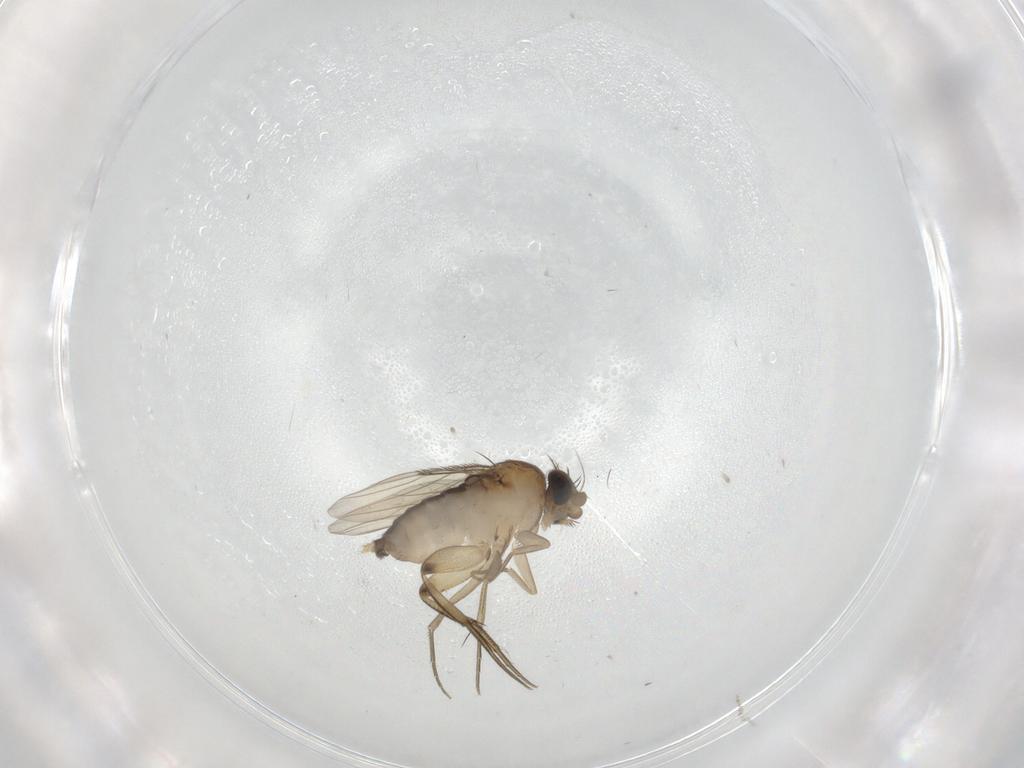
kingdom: Animalia
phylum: Arthropoda
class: Insecta
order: Diptera
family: Phoridae
